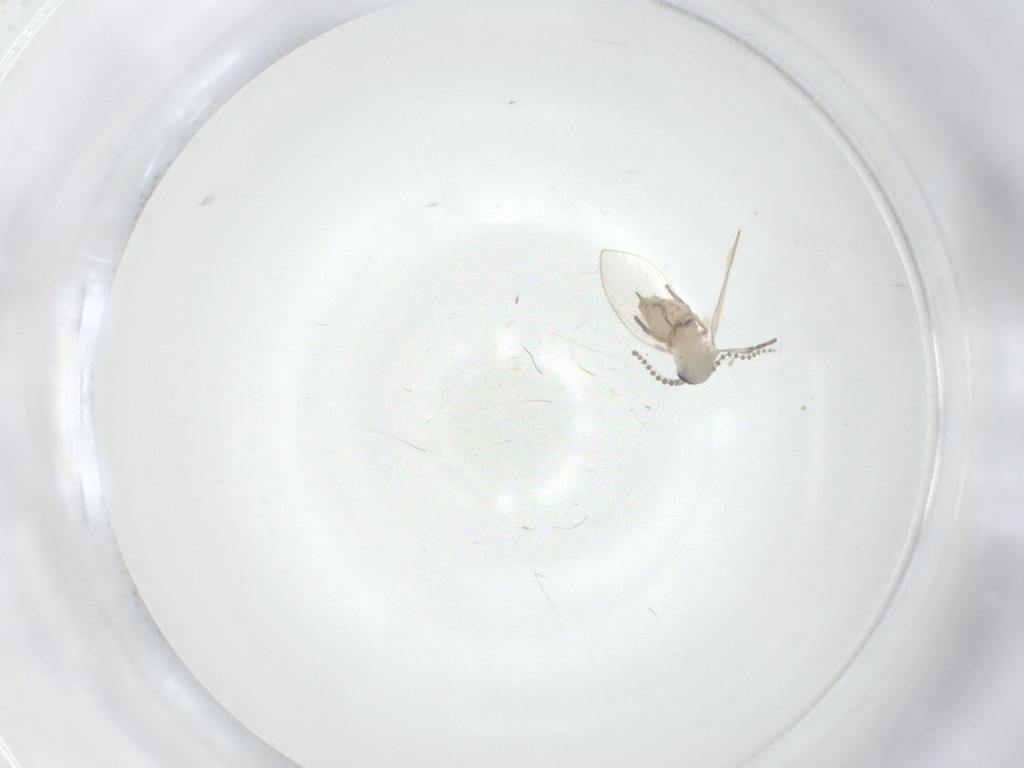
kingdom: Animalia
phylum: Arthropoda
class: Insecta
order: Diptera
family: Psychodidae
